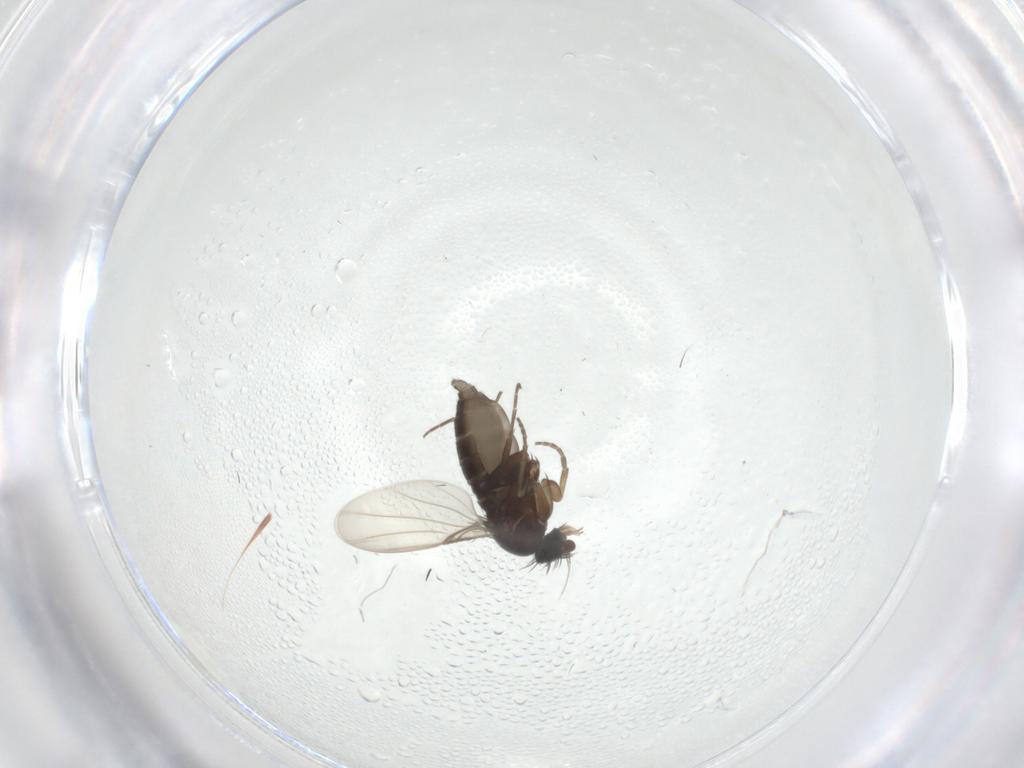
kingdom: Animalia
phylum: Arthropoda
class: Insecta
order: Diptera
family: Phoridae
